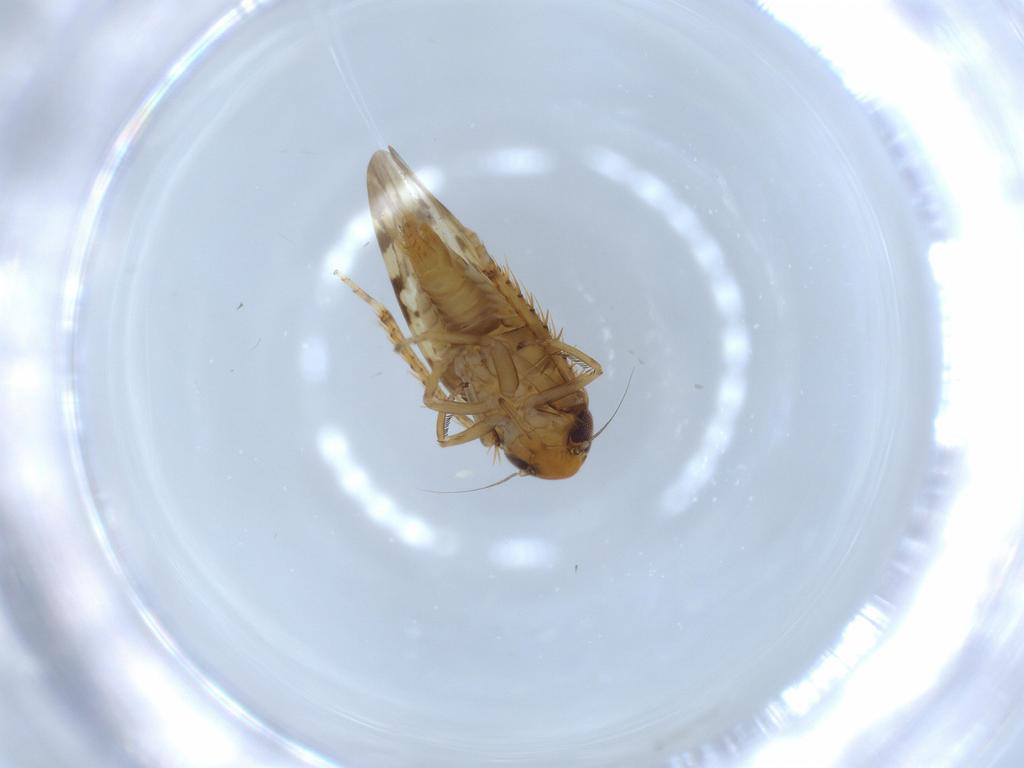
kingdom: Animalia
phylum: Arthropoda
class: Insecta
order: Hemiptera
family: Cicadellidae
